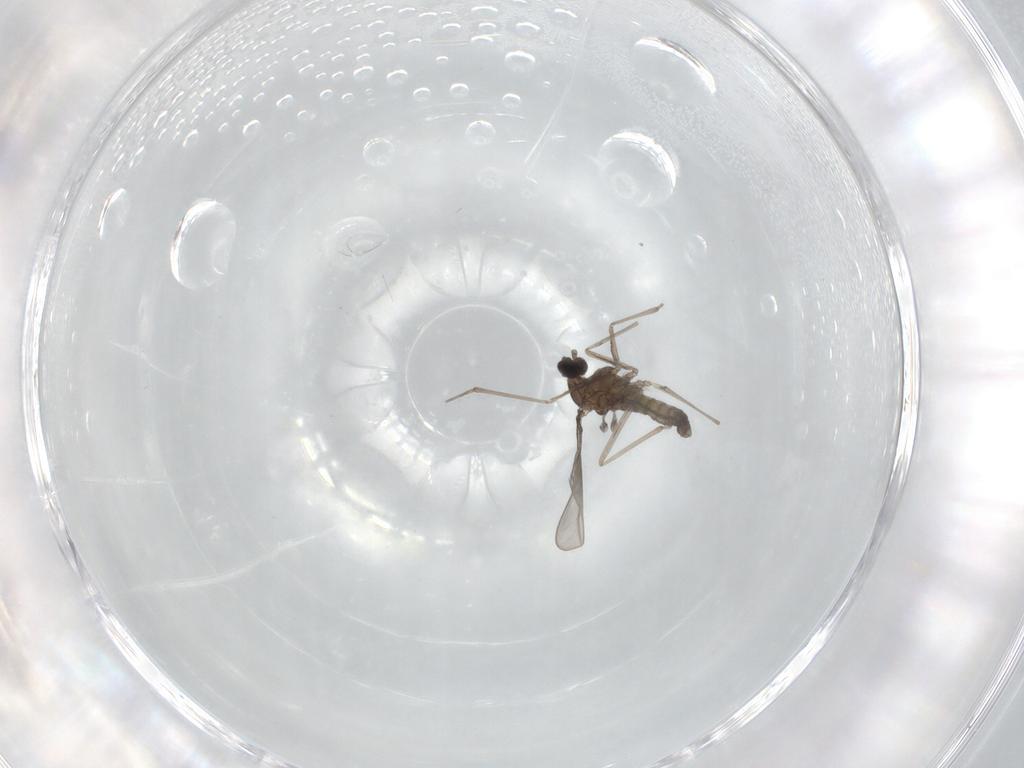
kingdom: Animalia
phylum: Arthropoda
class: Insecta
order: Diptera
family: Cecidomyiidae
